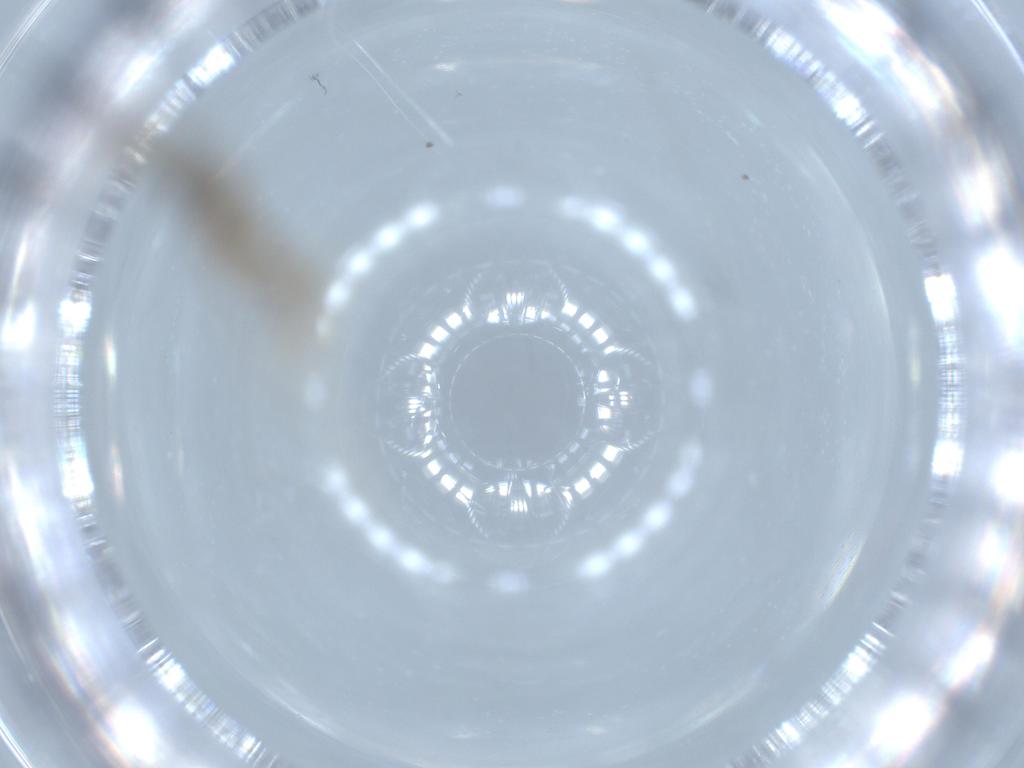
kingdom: Animalia
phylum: Arthropoda
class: Insecta
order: Diptera
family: Cecidomyiidae
